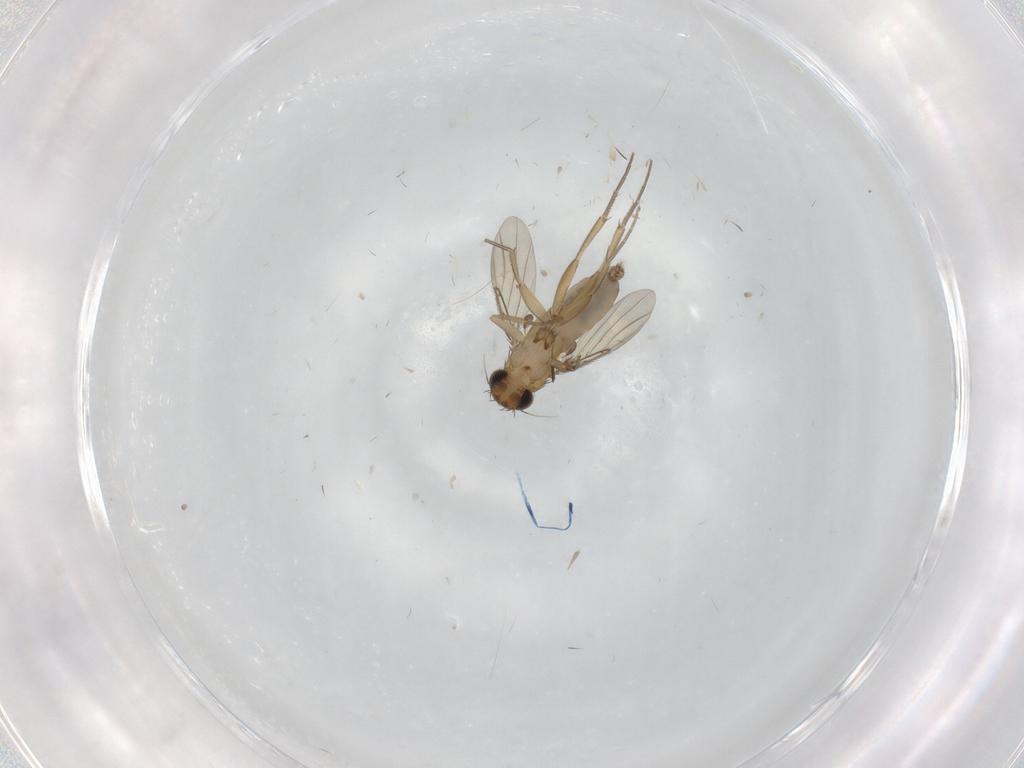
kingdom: Animalia
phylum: Arthropoda
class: Insecta
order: Diptera
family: Phoridae
